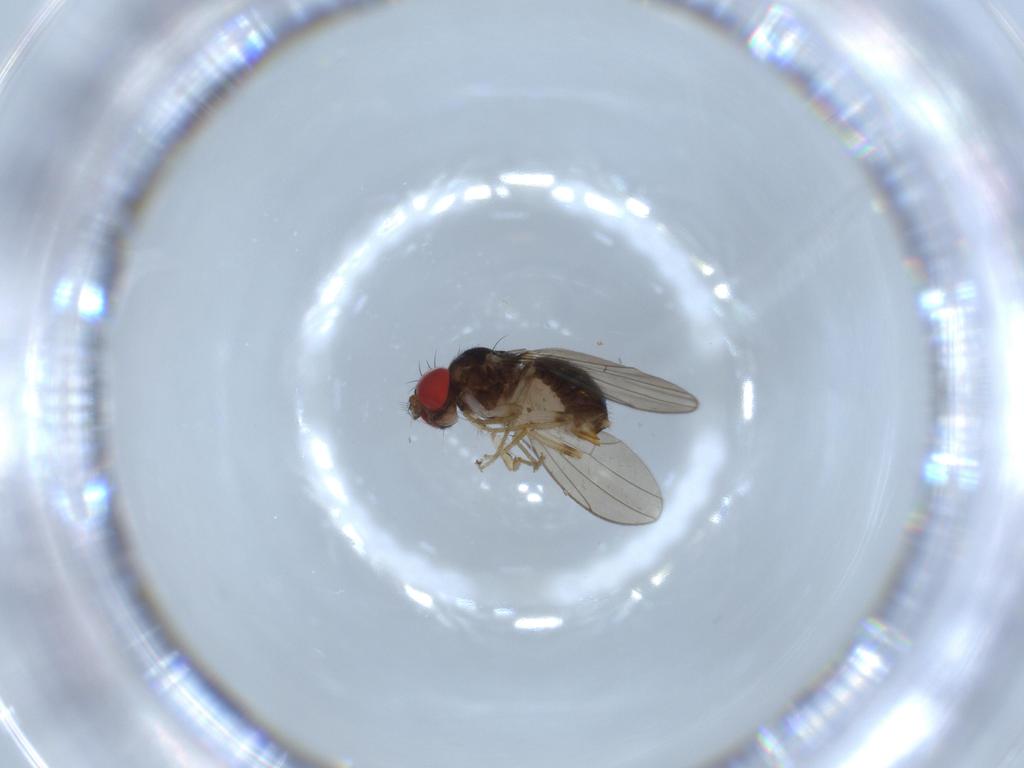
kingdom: Animalia
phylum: Arthropoda
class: Insecta
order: Diptera
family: Drosophilidae
